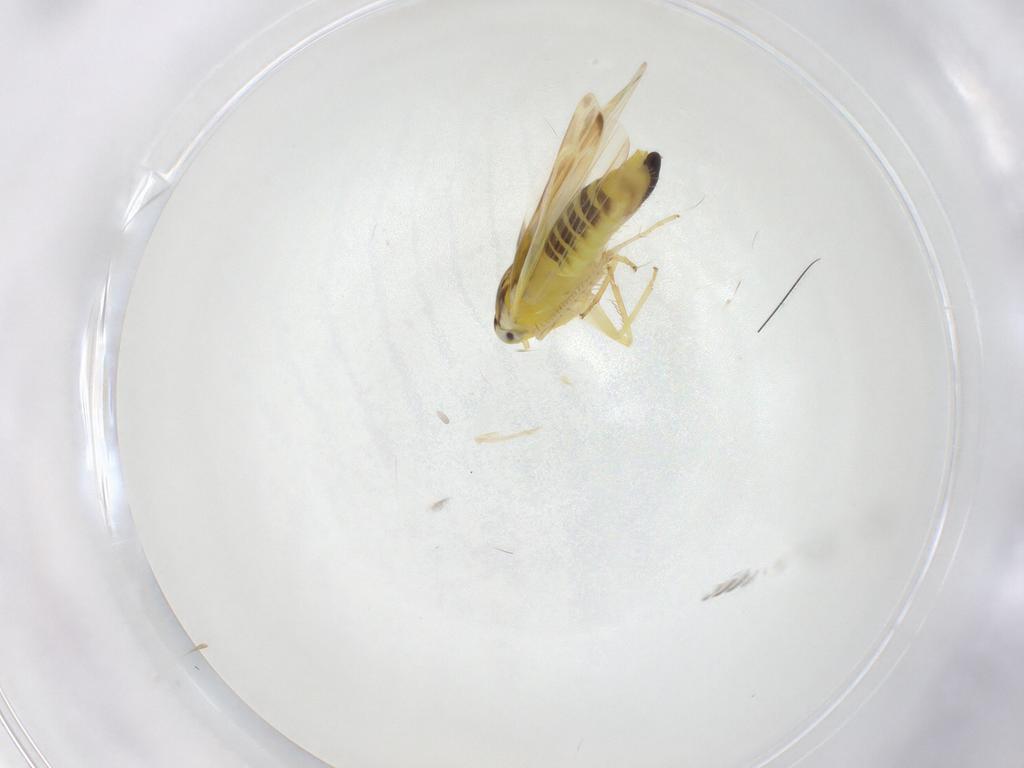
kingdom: Animalia
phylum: Arthropoda
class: Insecta
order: Hemiptera
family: Cicadellidae
